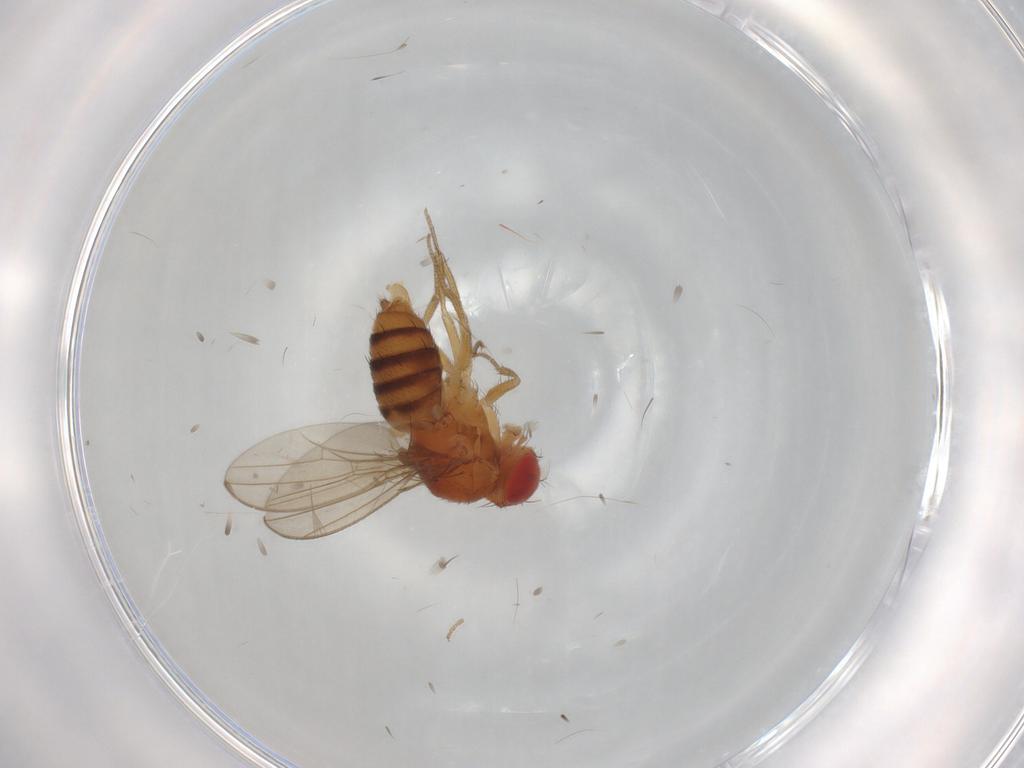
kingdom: Animalia
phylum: Arthropoda
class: Insecta
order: Diptera
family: Drosophilidae
